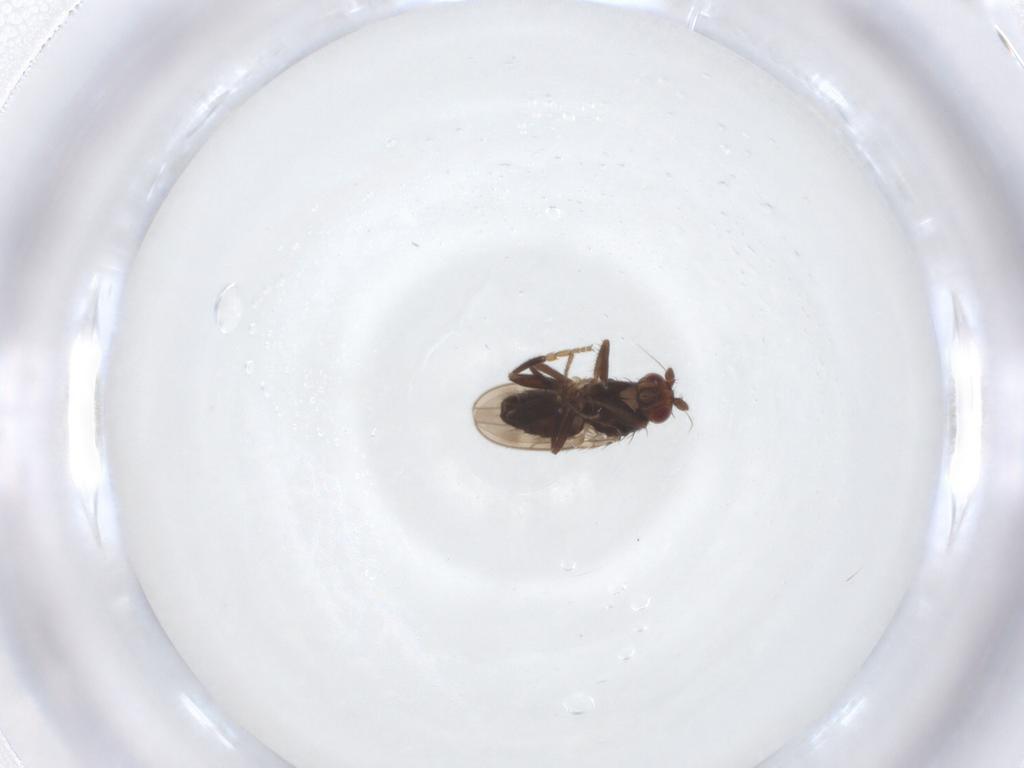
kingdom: Animalia
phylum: Arthropoda
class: Insecta
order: Diptera
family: Sphaeroceridae
